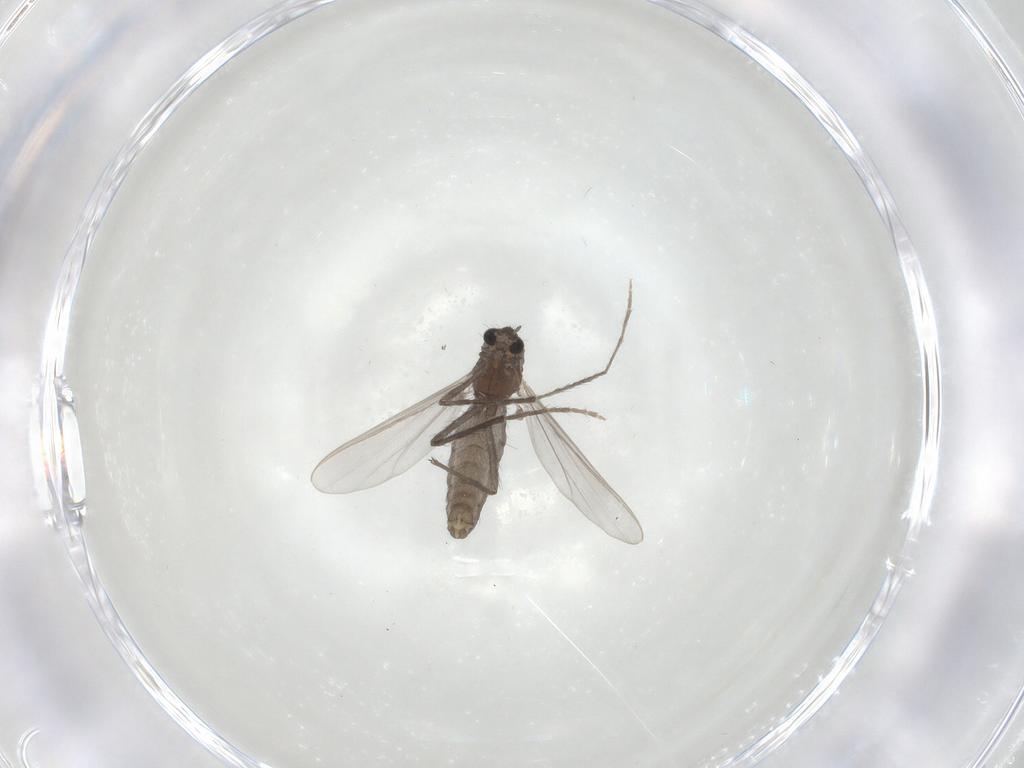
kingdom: Animalia
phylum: Arthropoda
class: Insecta
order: Diptera
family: Chironomidae
